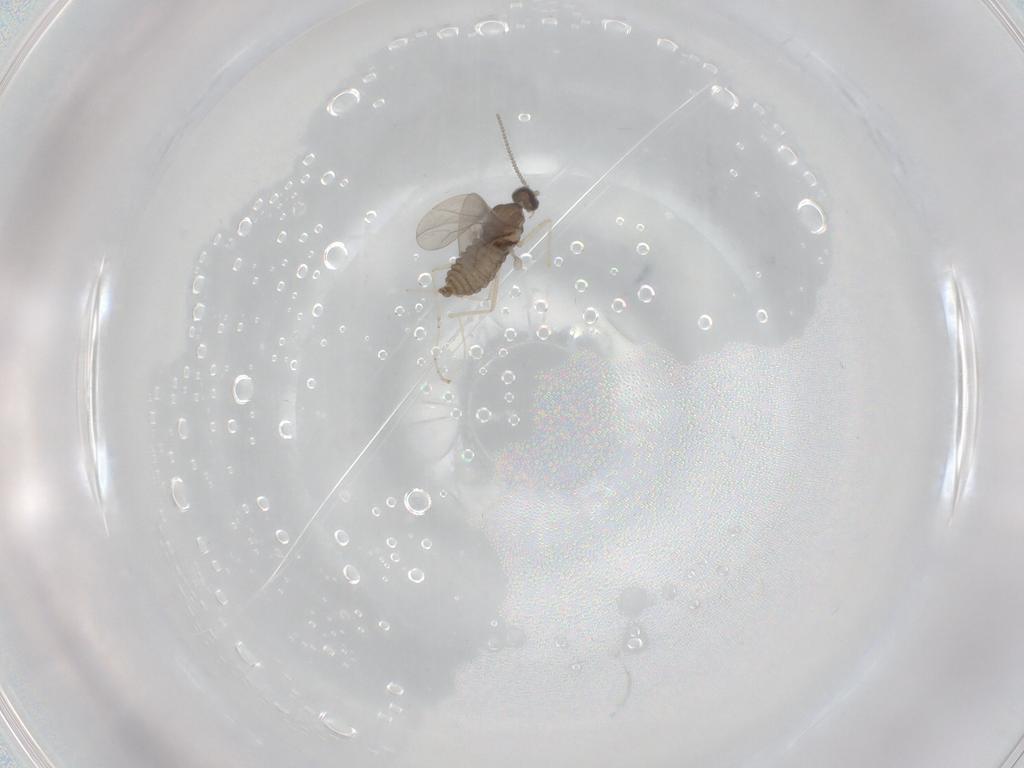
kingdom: Animalia
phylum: Arthropoda
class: Insecta
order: Diptera
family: Cecidomyiidae
